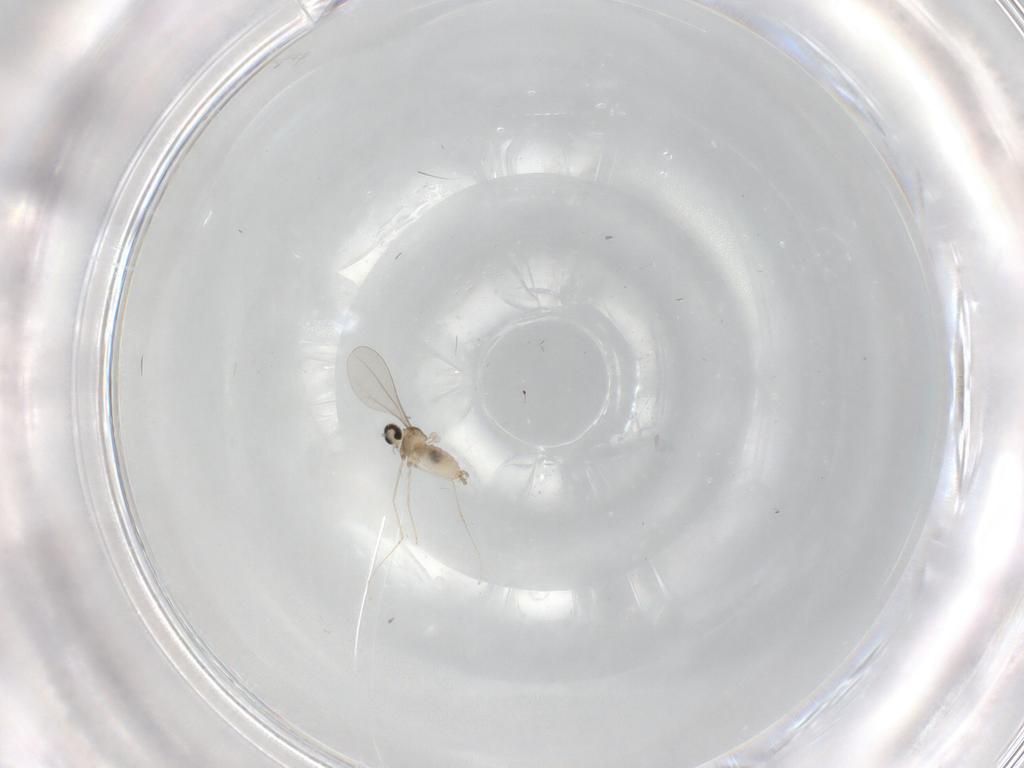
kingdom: Animalia
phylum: Arthropoda
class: Insecta
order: Diptera
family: Cecidomyiidae
